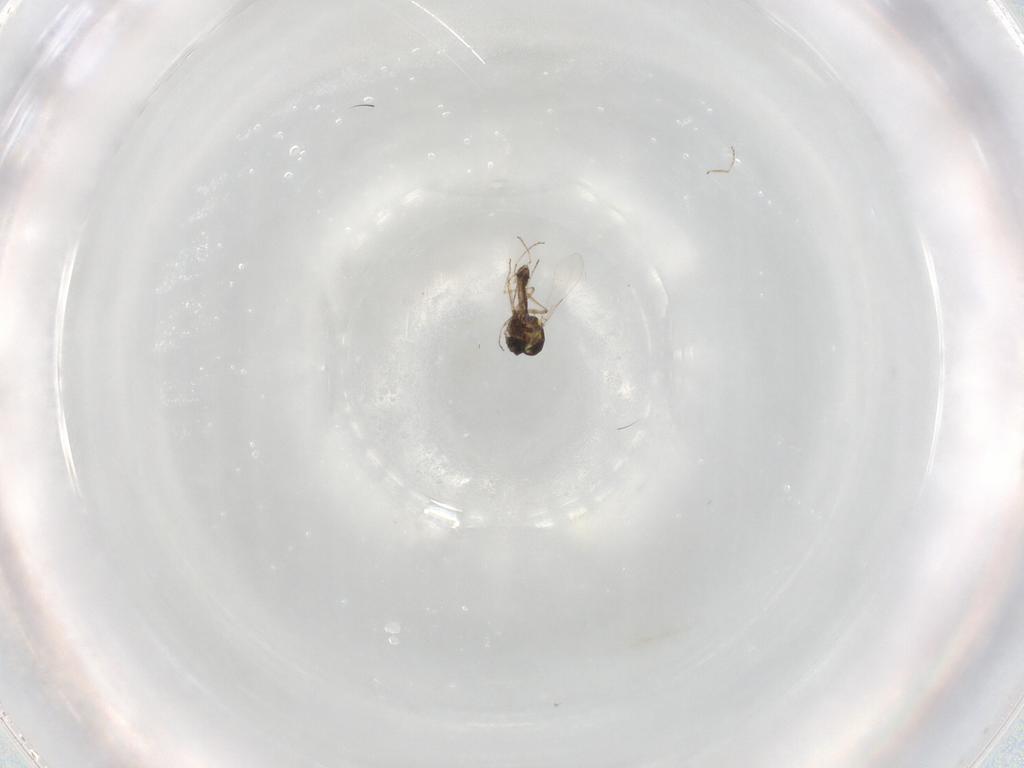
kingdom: Animalia
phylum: Arthropoda
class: Insecta
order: Diptera
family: Glossinidae
